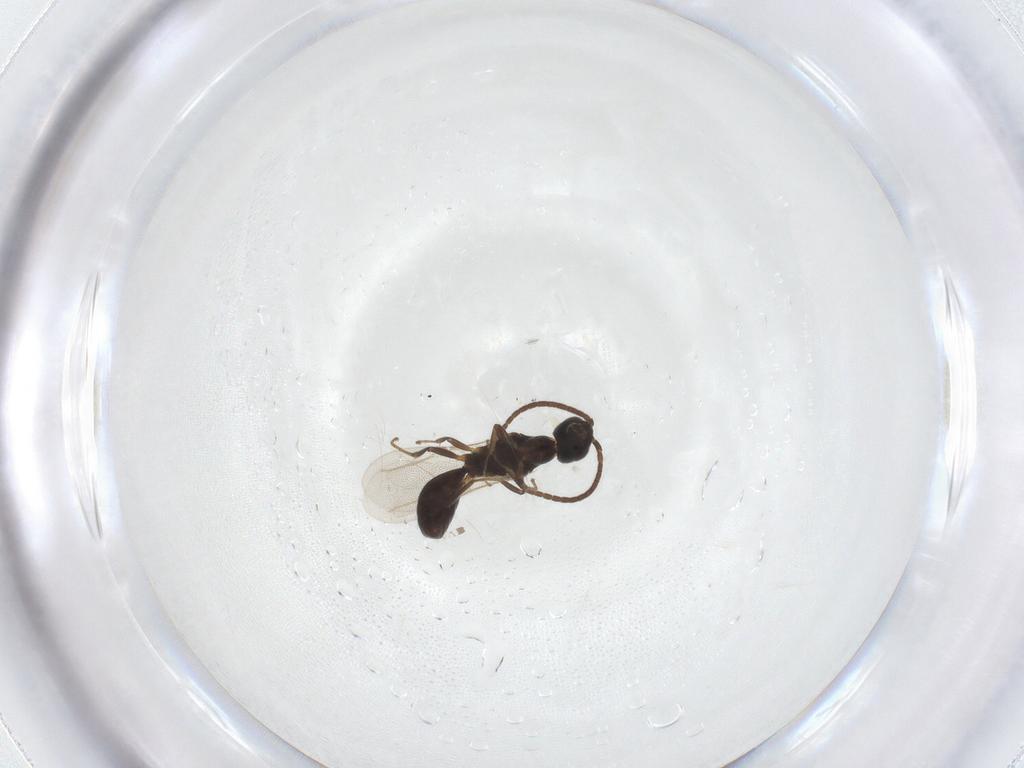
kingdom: Animalia
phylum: Arthropoda
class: Insecta
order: Hymenoptera
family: Bethylidae
